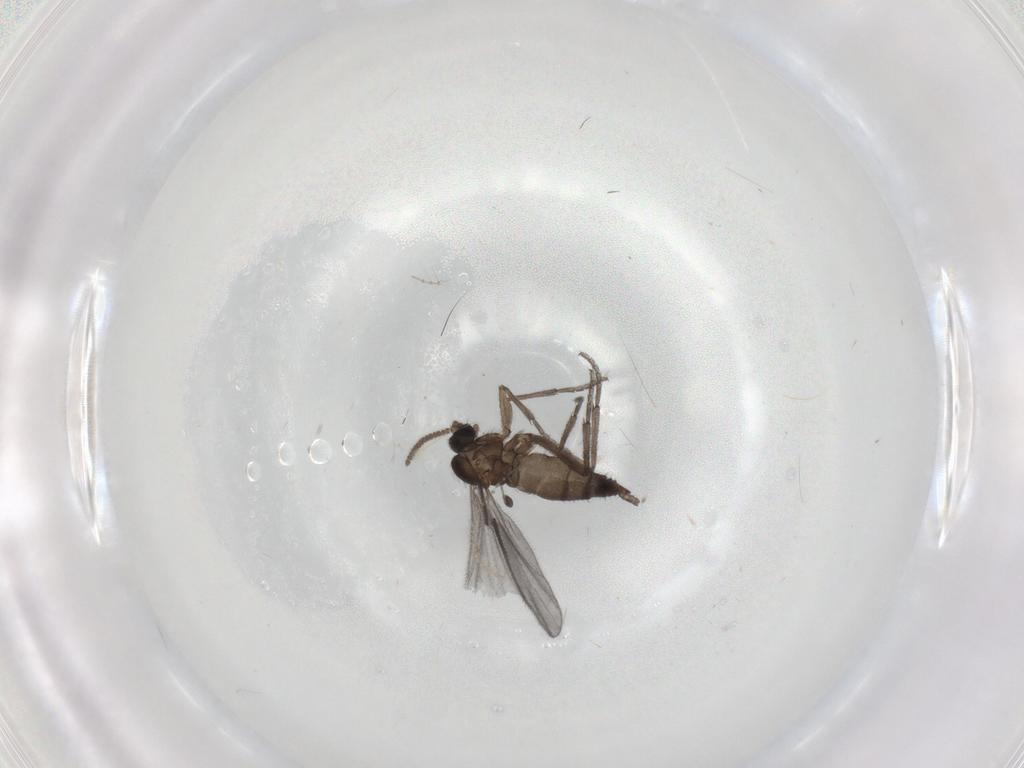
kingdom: Animalia
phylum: Arthropoda
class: Insecta
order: Diptera
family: Sciaridae
